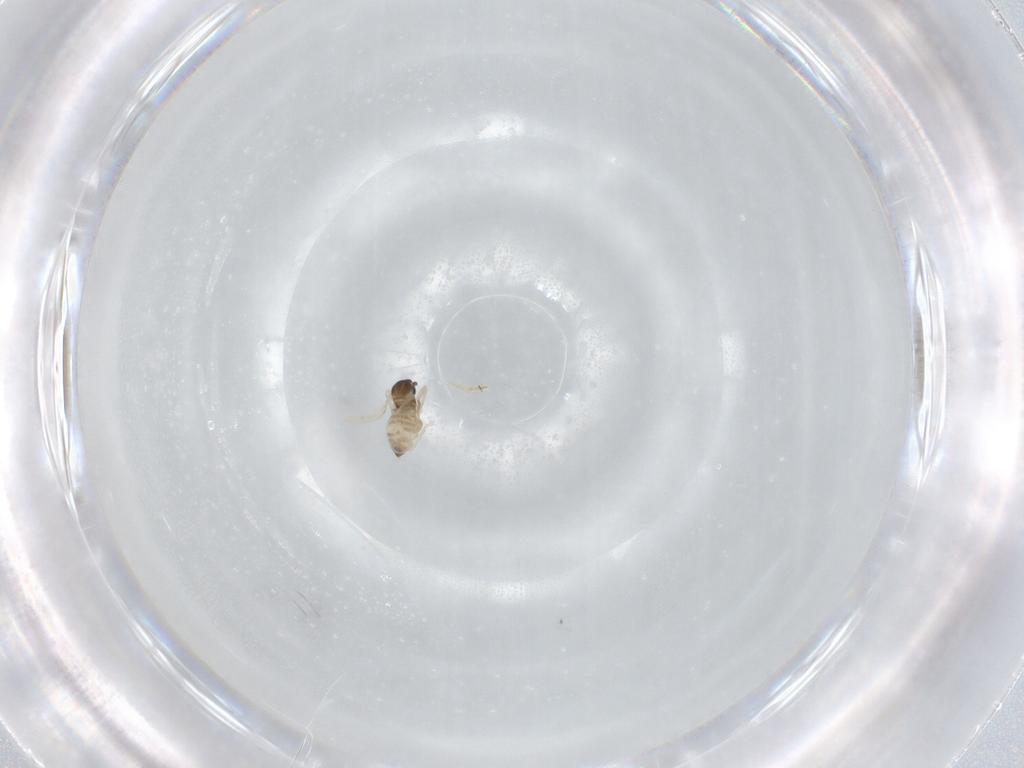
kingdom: Animalia
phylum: Arthropoda
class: Insecta
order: Diptera
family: Cecidomyiidae
